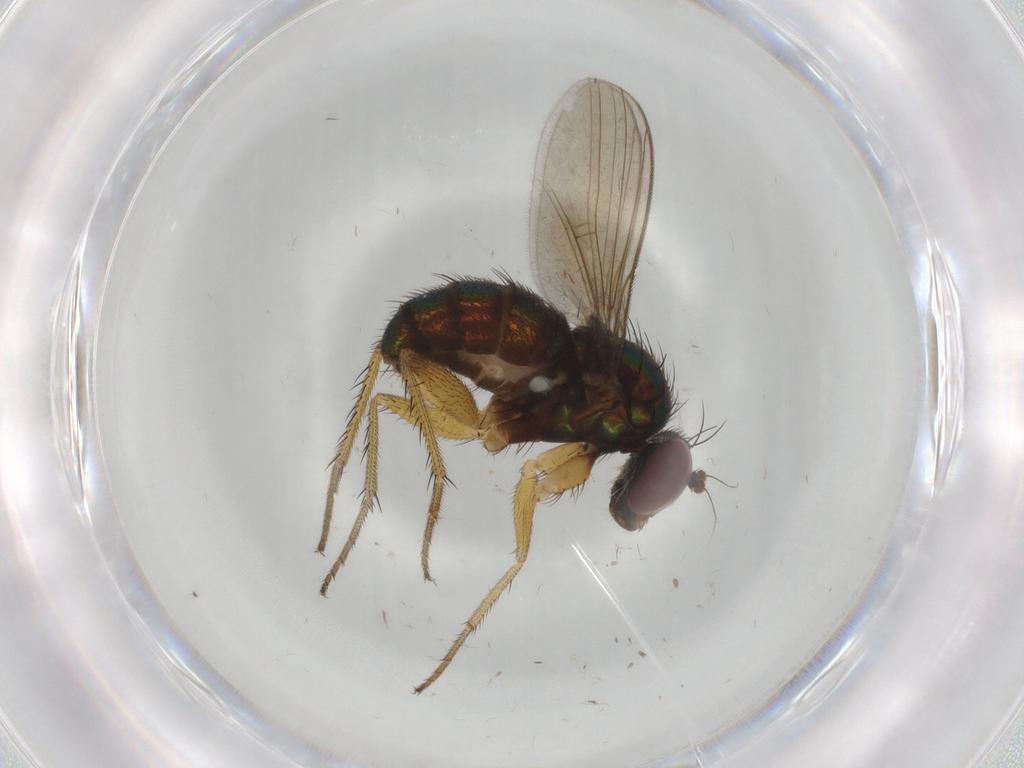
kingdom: Animalia
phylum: Arthropoda
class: Insecta
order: Diptera
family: Dolichopodidae
